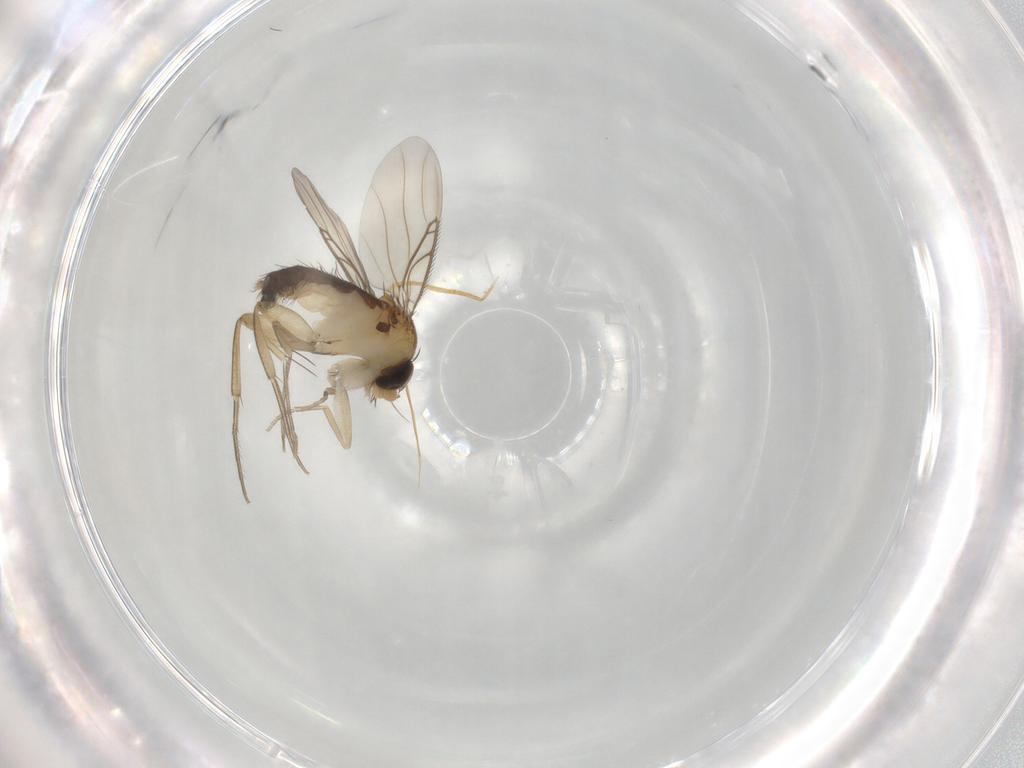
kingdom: Animalia
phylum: Arthropoda
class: Insecta
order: Diptera
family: Phoridae
